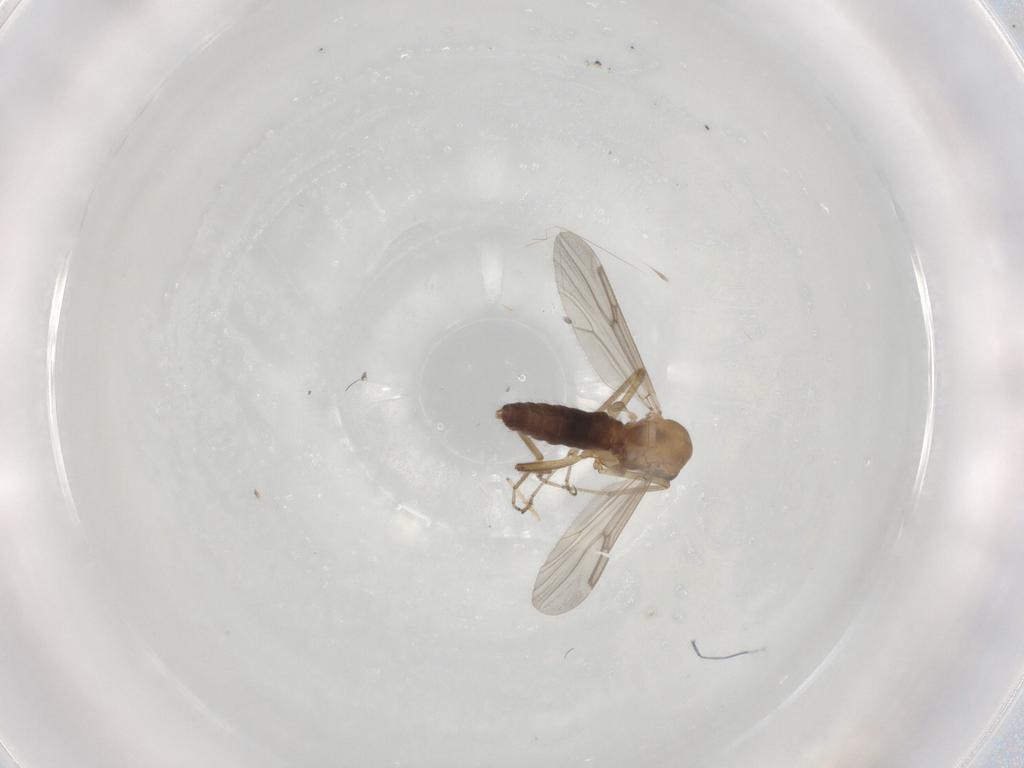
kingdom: Animalia
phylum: Arthropoda
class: Insecta
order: Diptera
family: Ceratopogonidae
